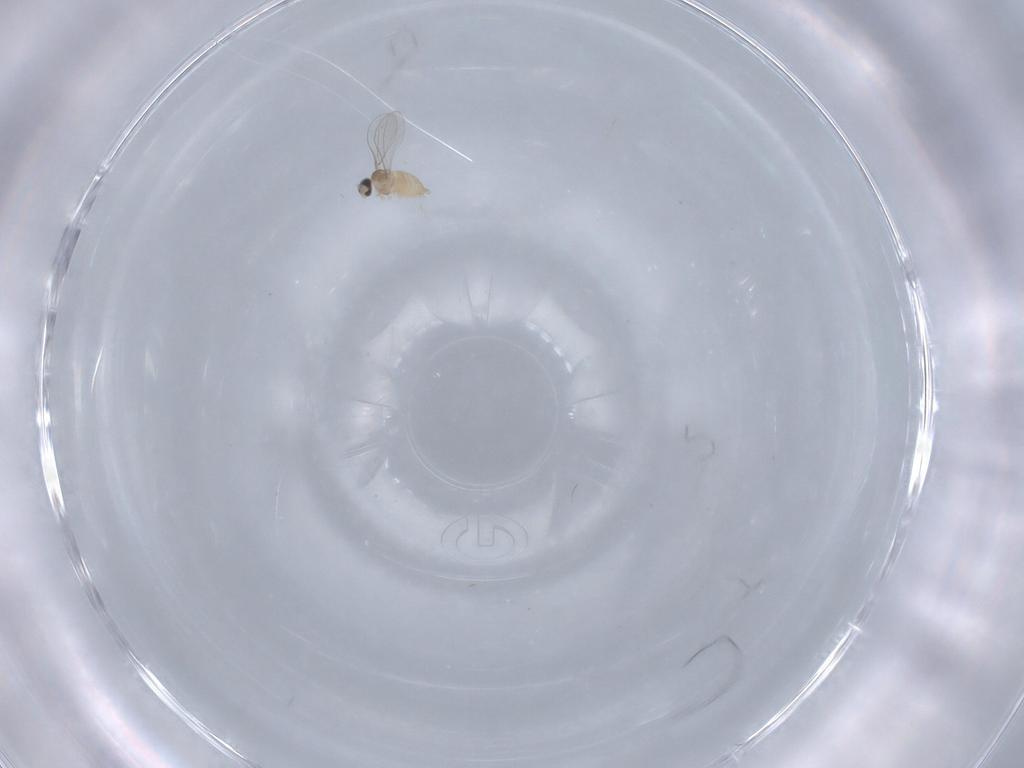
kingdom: Animalia
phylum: Arthropoda
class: Insecta
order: Diptera
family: Cecidomyiidae
